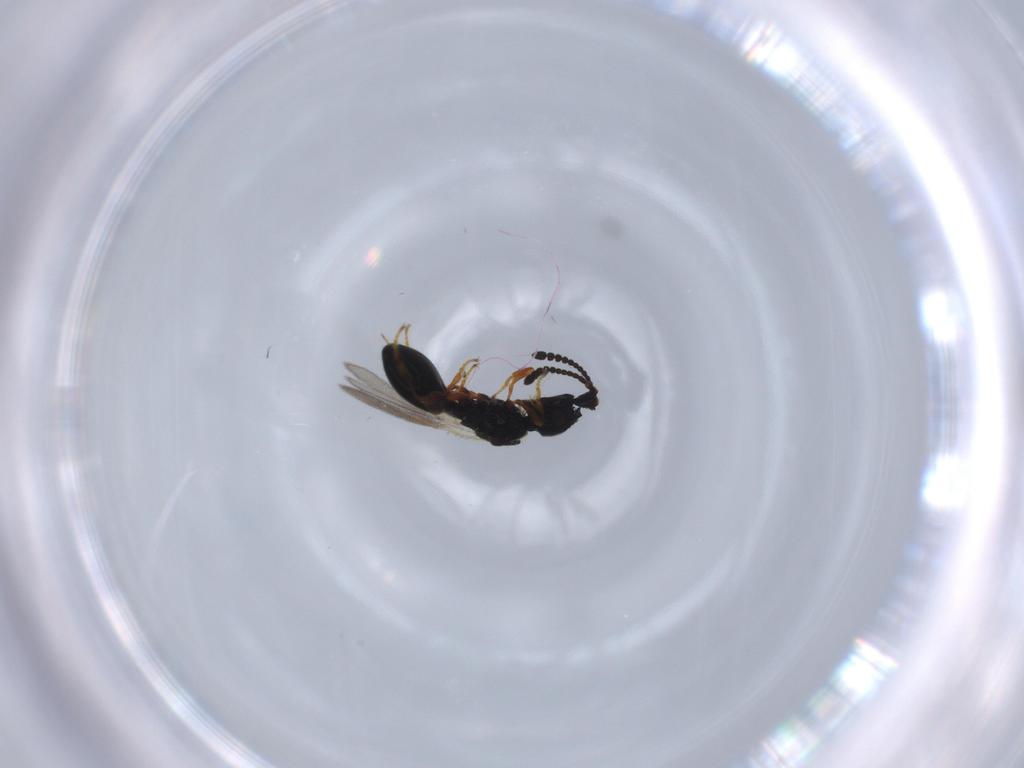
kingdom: Animalia
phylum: Arthropoda
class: Insecta
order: Hymenoptera
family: Diapriidae
